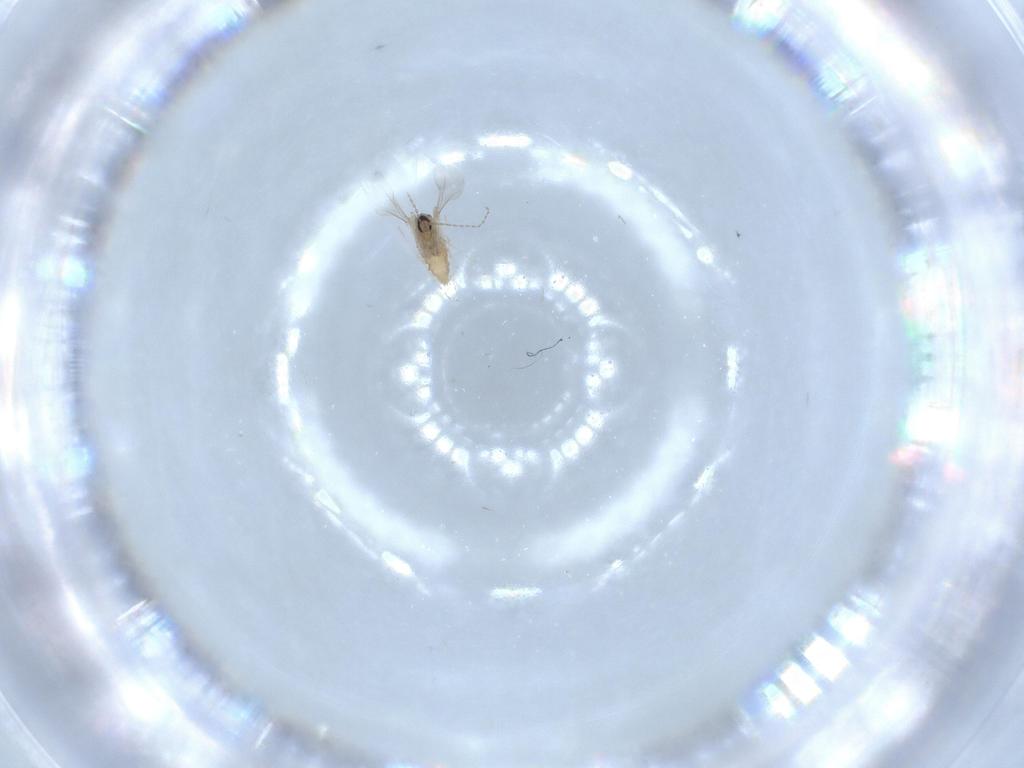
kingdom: Animalia
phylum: Arthropoda
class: Insecta
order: Diptera
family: Cecidomyiidae
